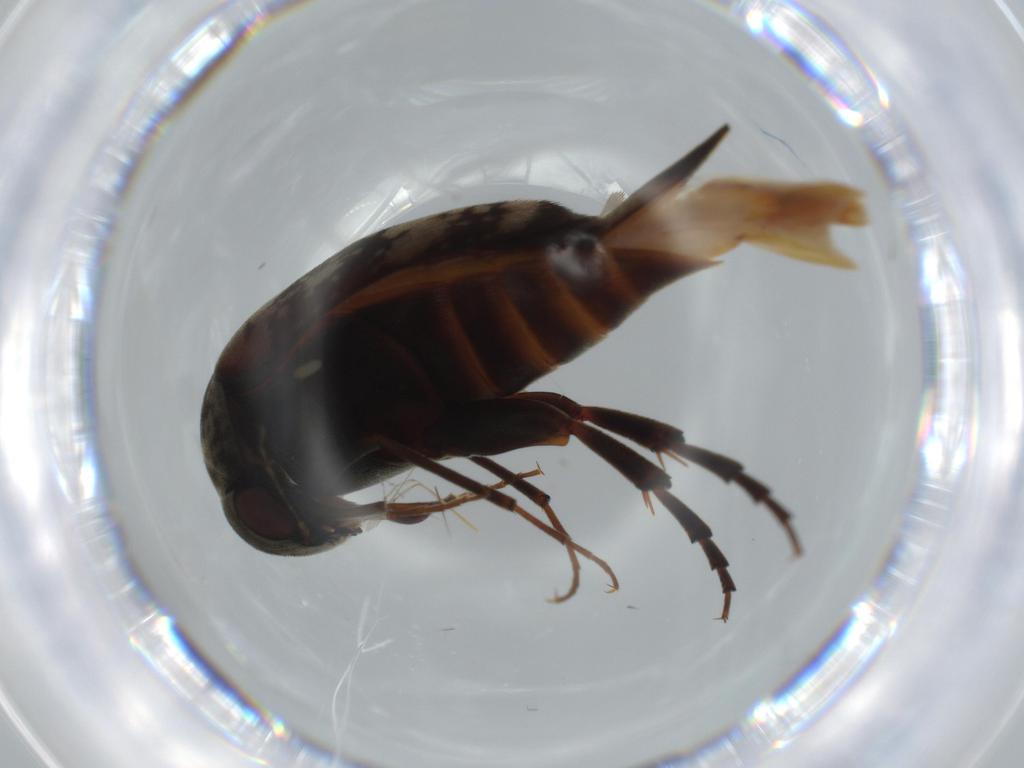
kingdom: Animalia
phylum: Arthropoda
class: Insecta
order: Coleoptera
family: Mordellidae
